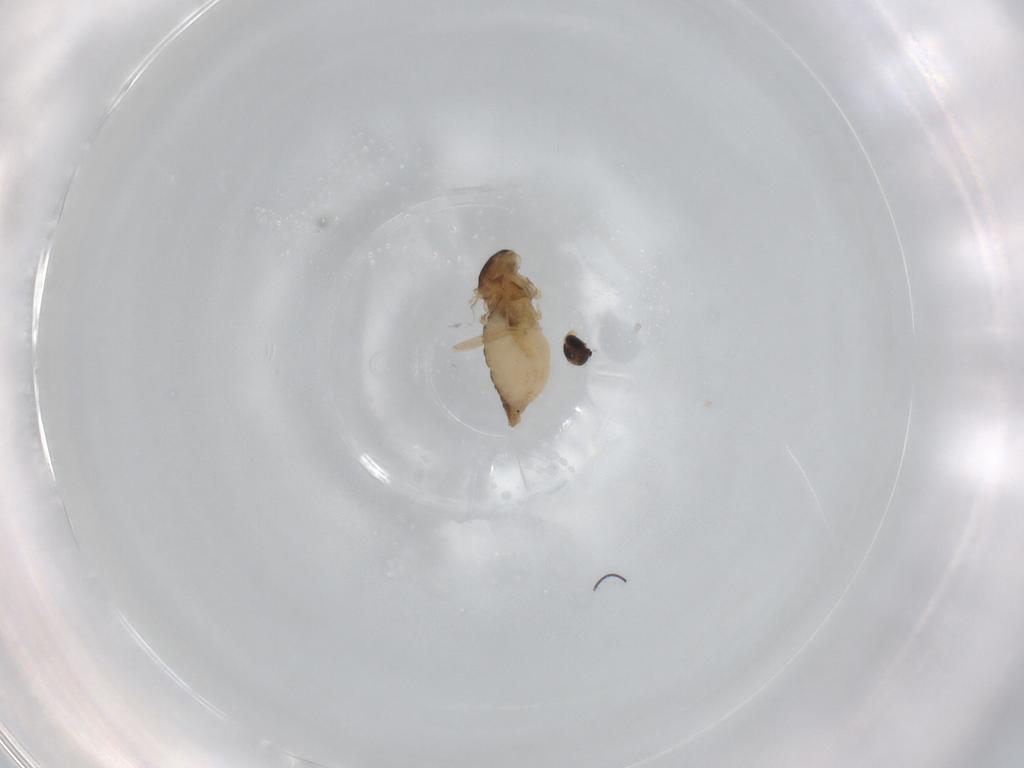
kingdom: Animalia
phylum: Arthropoda
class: Insecta
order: Diptera
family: Cecidomyiidae
